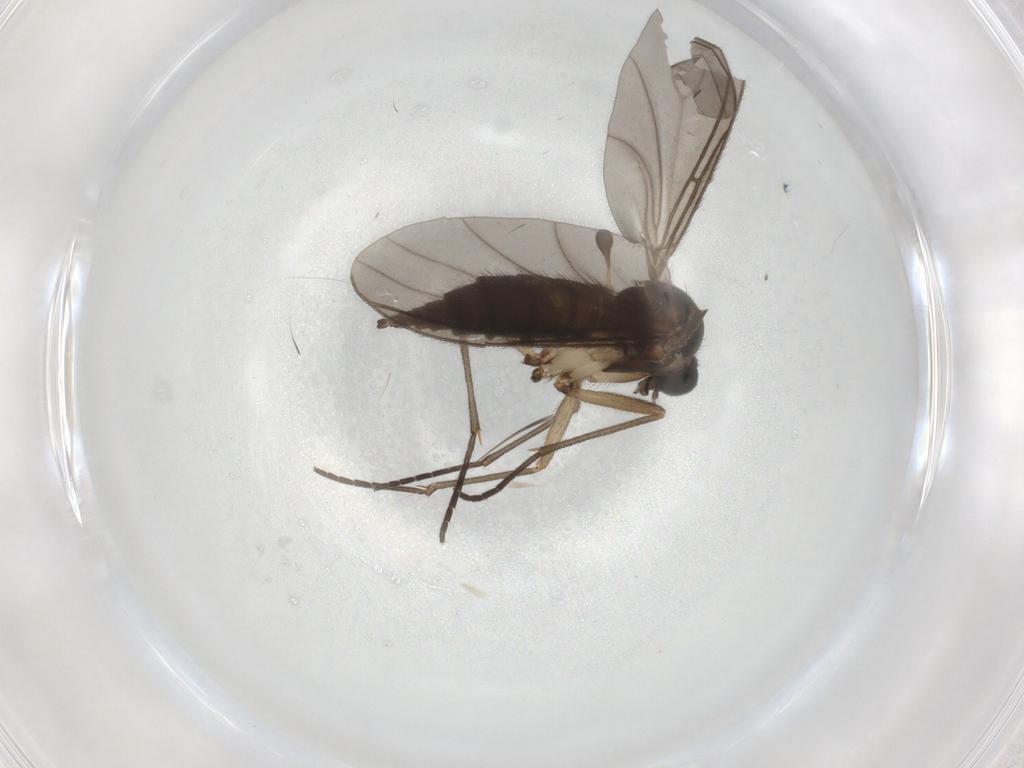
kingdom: Animalia
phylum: Arthropoda
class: Insecta
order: Diptera
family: Sciaridae
